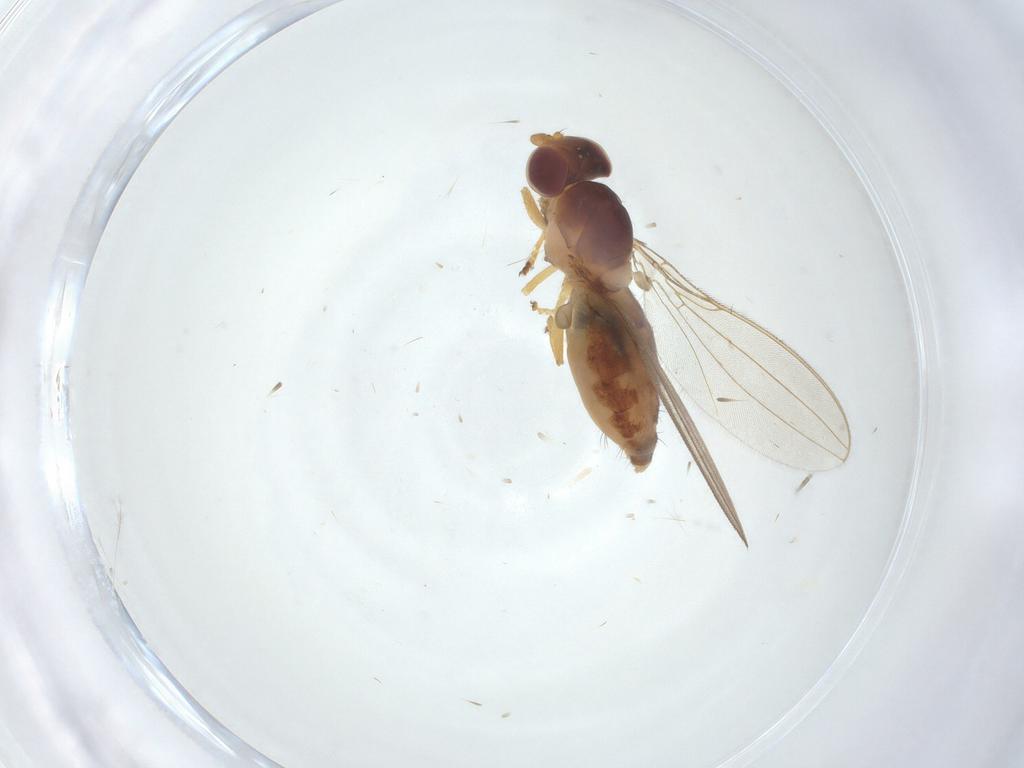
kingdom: Animalia
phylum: Arthropoda
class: Insecta
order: Diptera
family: Asteiidae
